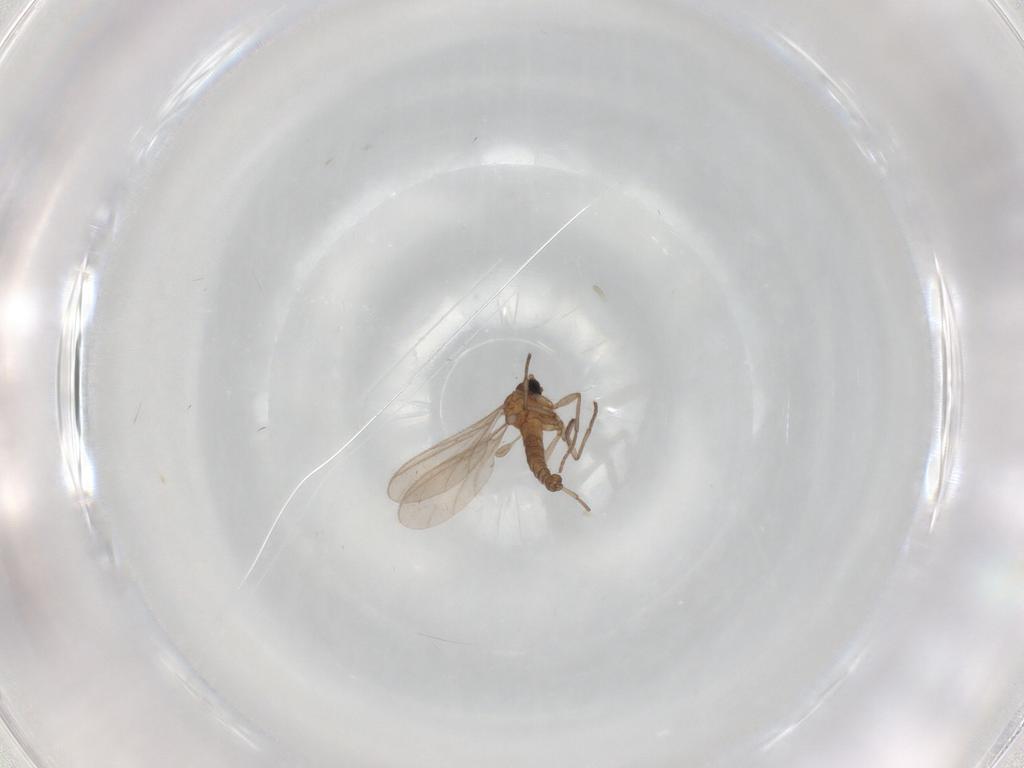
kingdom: Animalia
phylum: Arthropoda
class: Insecta
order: Diptera
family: Sciaridae
